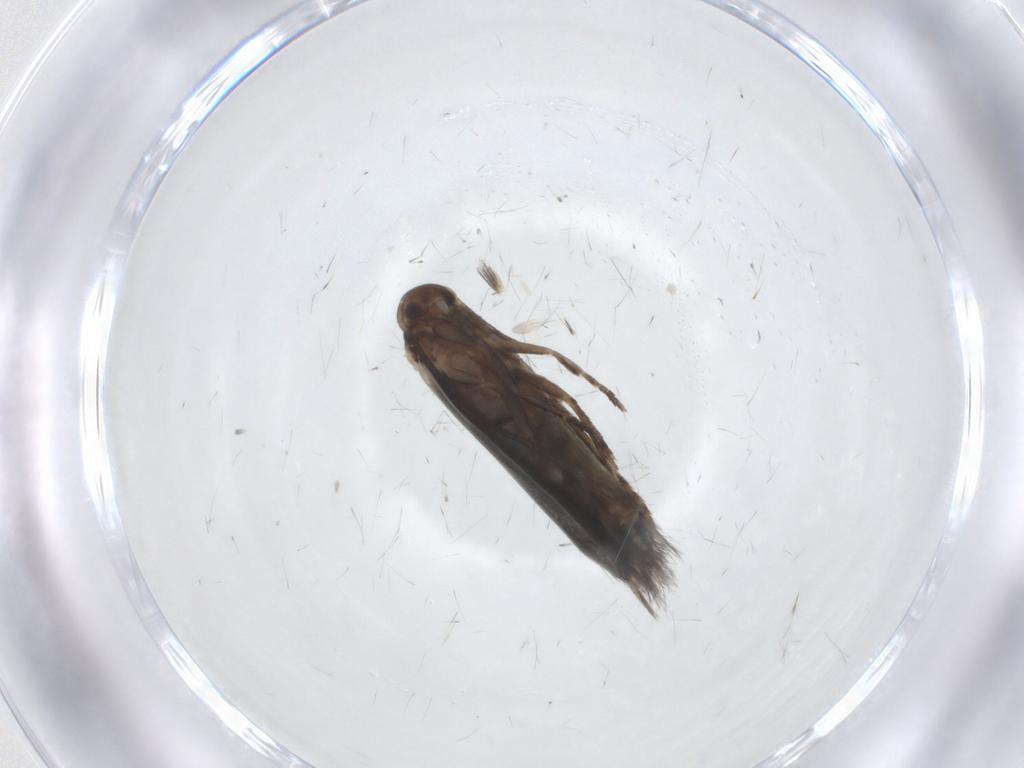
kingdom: Animalia
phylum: Arthropoda
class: Insecta
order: Lepidoptera
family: Elachistidae
